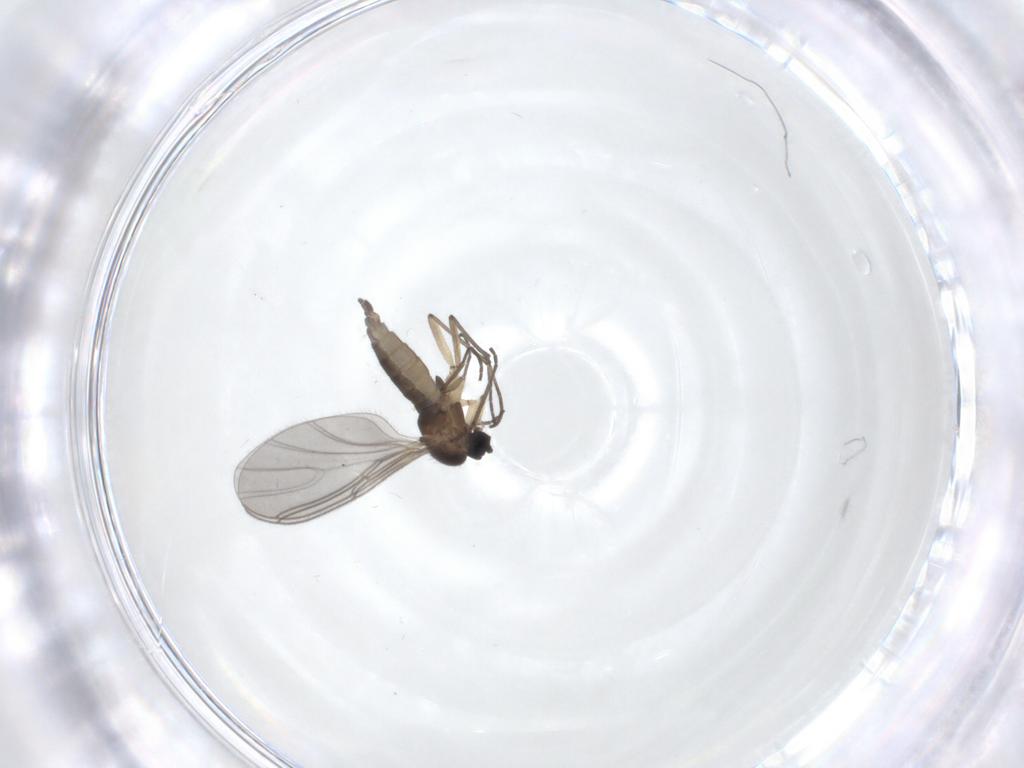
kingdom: Animalia
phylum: Arthropoda
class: Insecta
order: Diptera
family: Sciaridae
